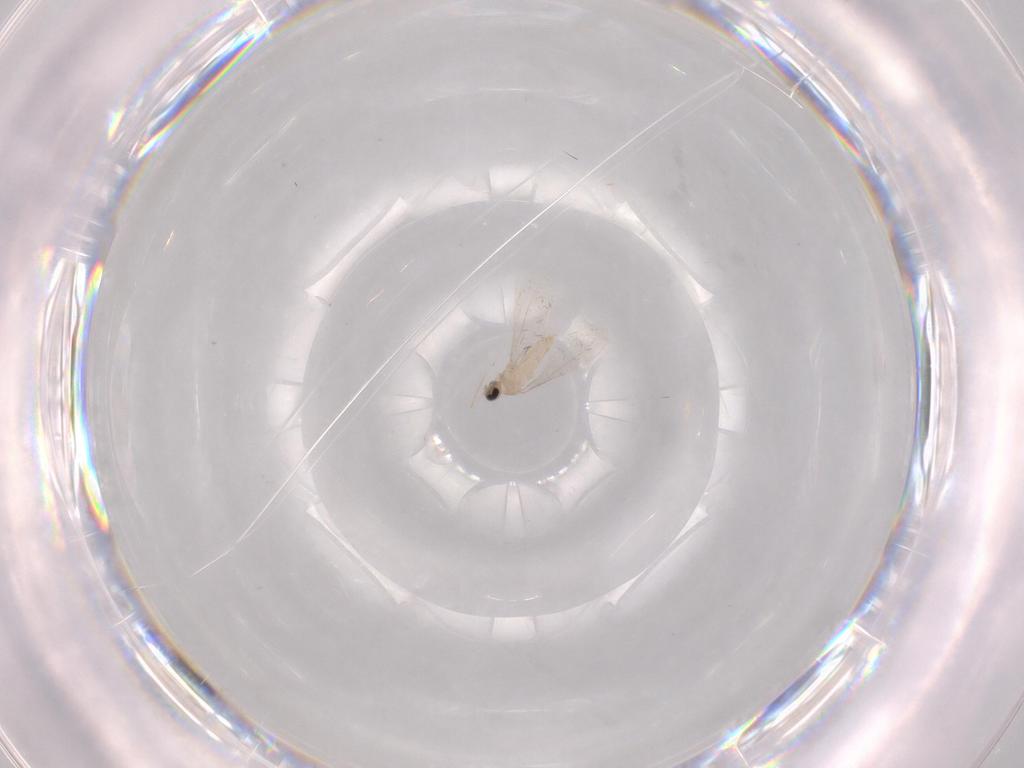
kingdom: Animalia
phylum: Arthropoda
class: Insecta
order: Diptera
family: Cecidomyiidae
